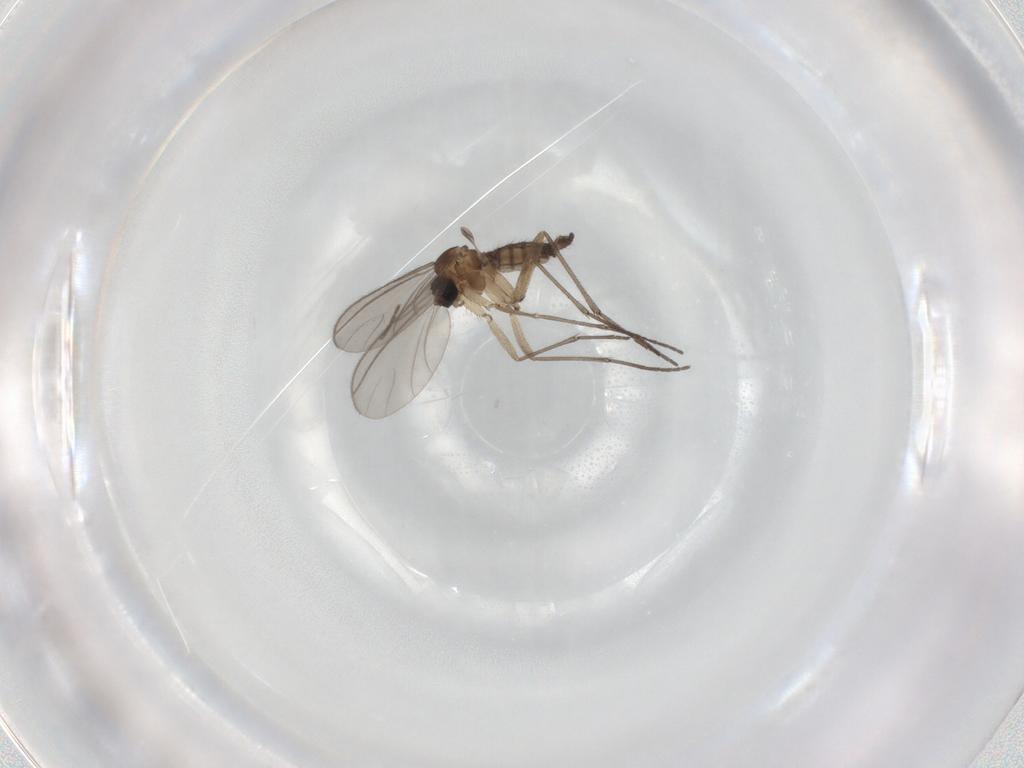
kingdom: Animalia
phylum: Arthropoda
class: Insecta
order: Diptera
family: Sciaridae
